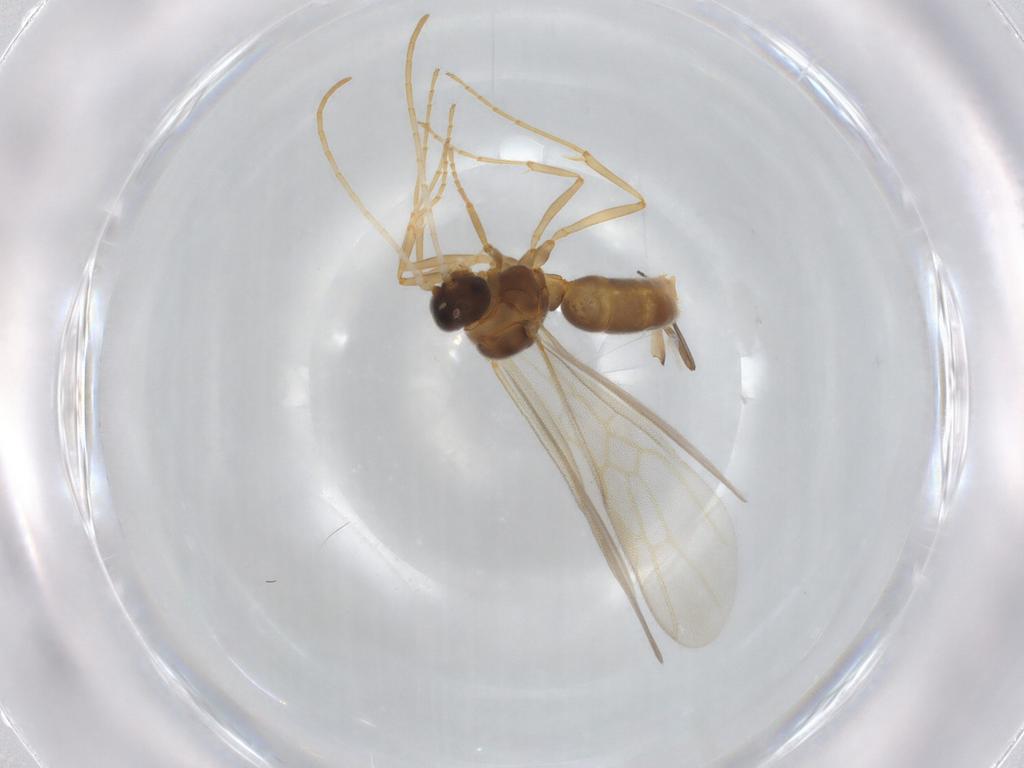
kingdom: Animalia
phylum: Arthropoda
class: Insecta
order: Hymenoptera
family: Formicidae
